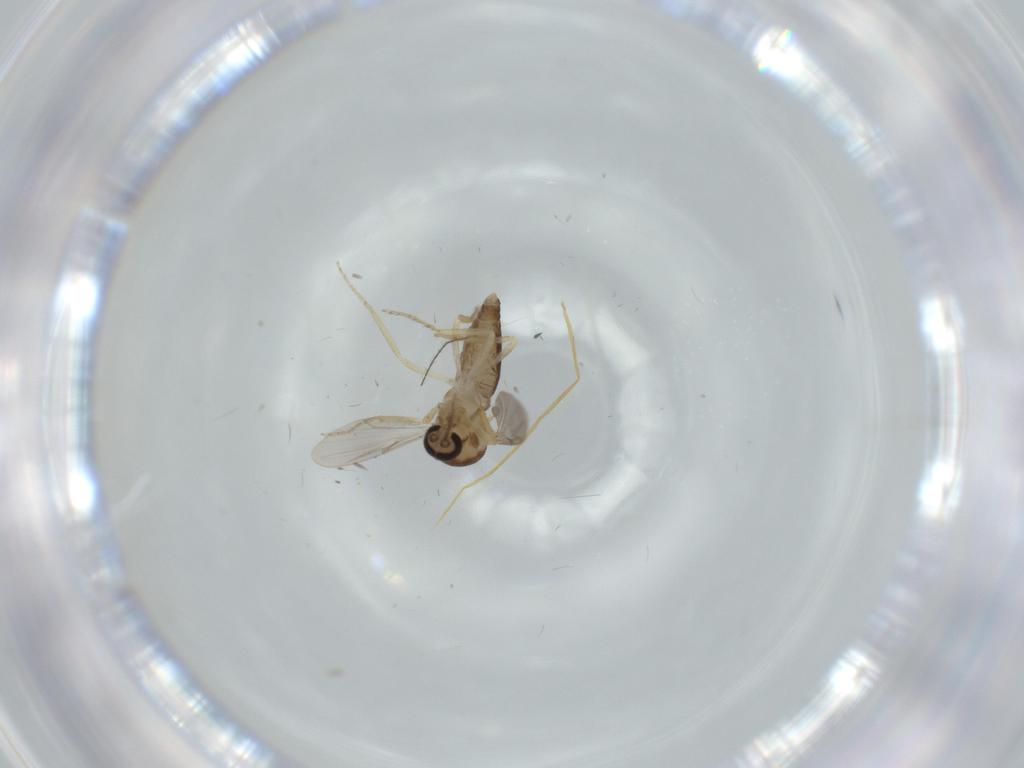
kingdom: Animalia
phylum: Arthropoda
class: Insecta
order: Diptera
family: Ceratopogonidae
